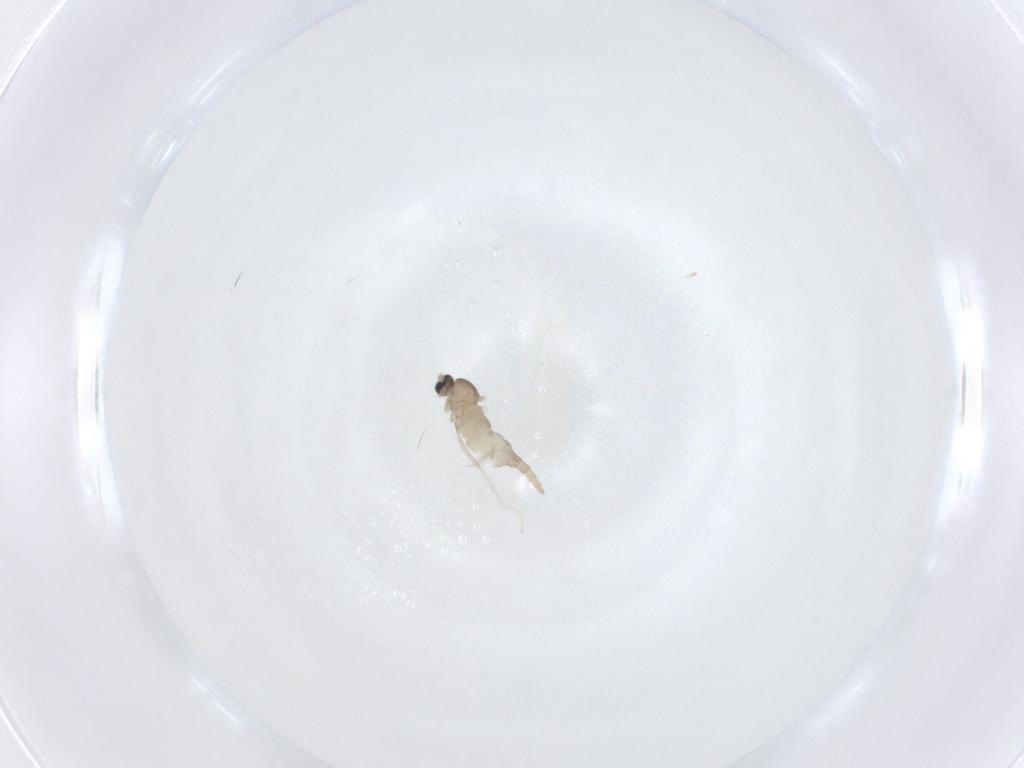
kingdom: Animalia
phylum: Arthropoda
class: Insecta
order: Diptera
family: Cecidomyiidae
